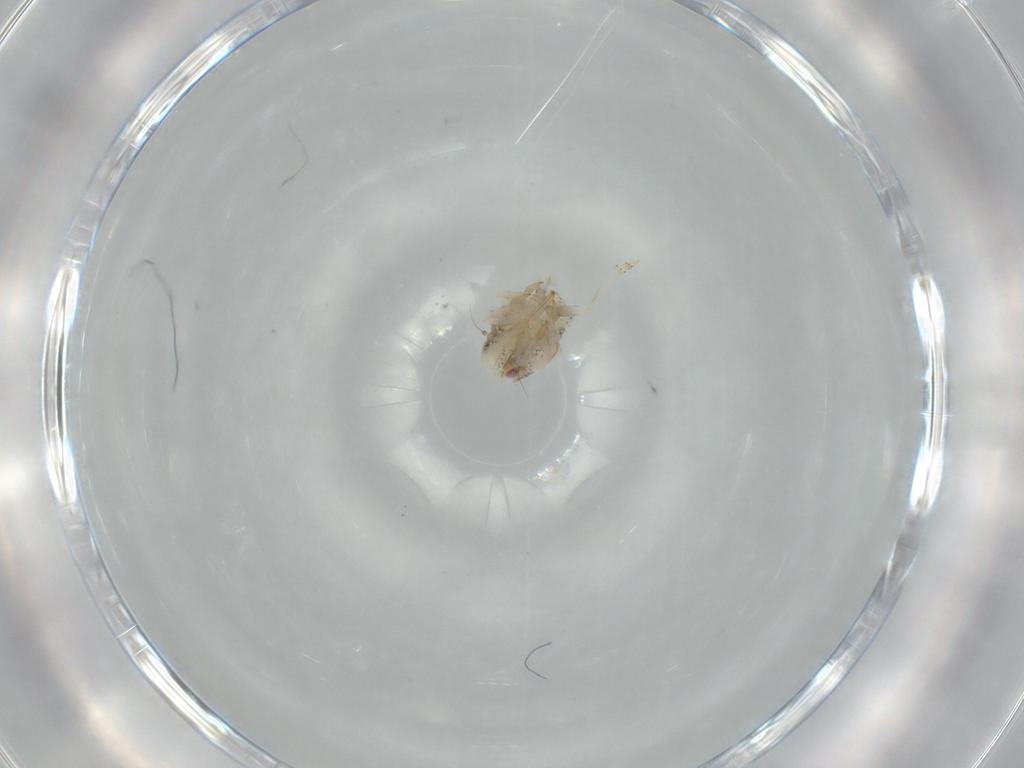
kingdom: Animalia
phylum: Arthropoda
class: Insecta
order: Hemiptera
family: Acanaloniidae
